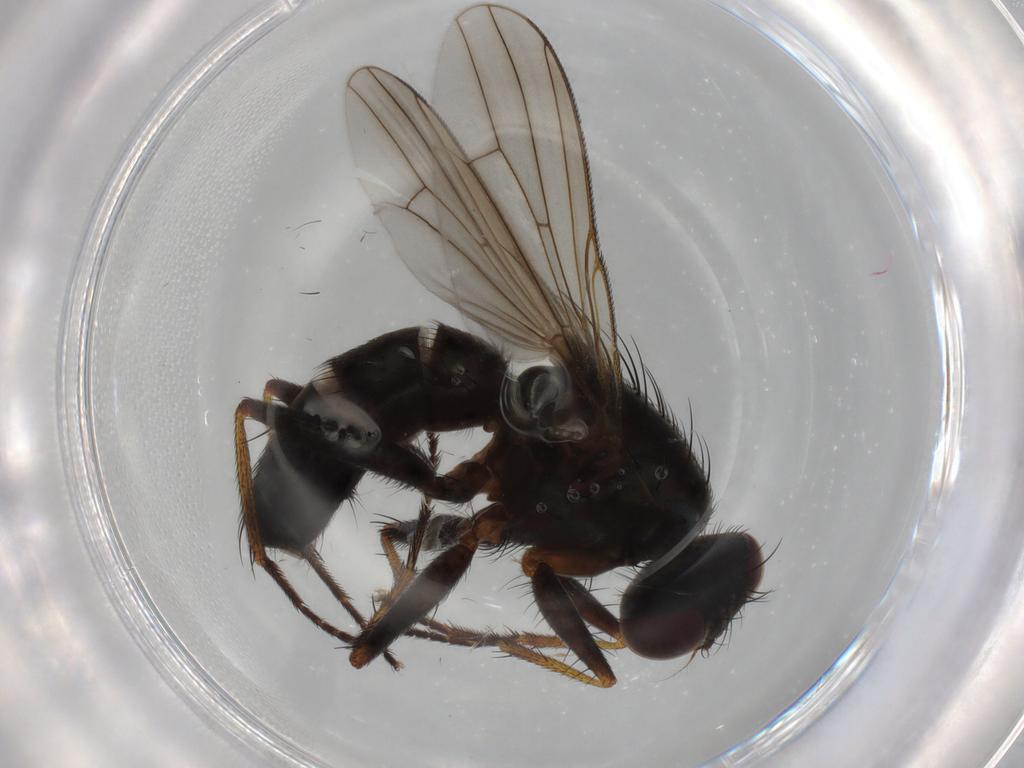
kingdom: Animalia
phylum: Arthropoda
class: Insecta
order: Diptera
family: Muscidae
